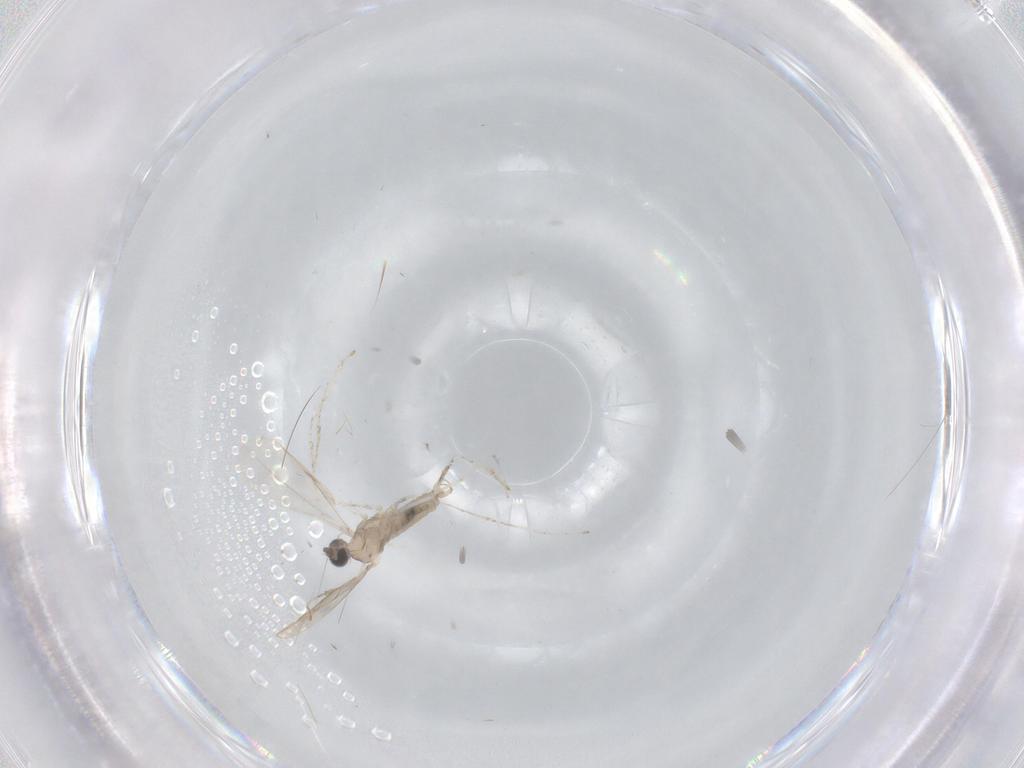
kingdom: Animalia
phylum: Arthropoda
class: Insecta
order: Diptera
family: Cecidomyiidae
